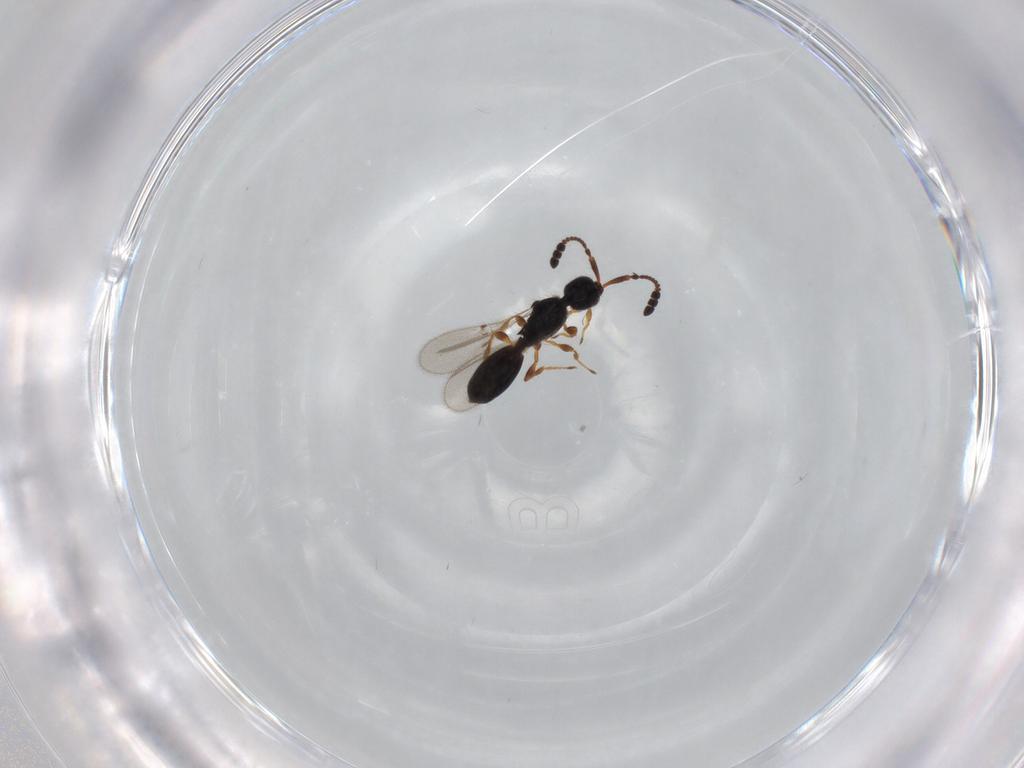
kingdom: Animalia
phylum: Arthropoda
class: Insecta
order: Hymenoptera
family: Diapriidae
